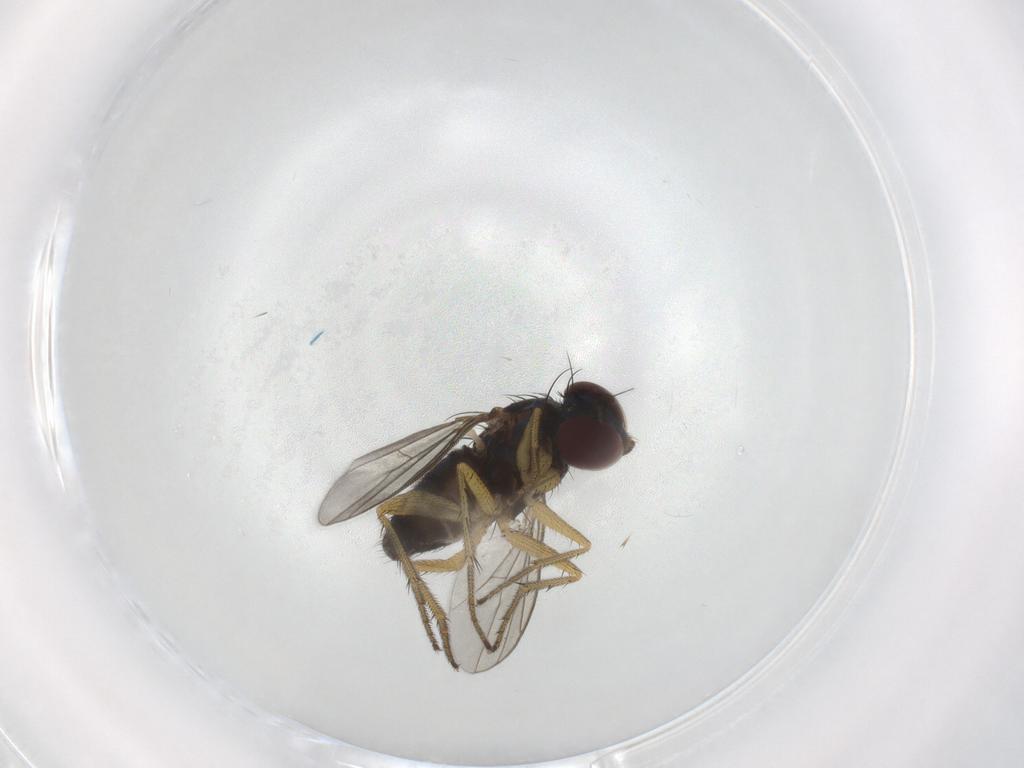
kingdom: Animalia
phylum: Arthropoda
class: Insecta
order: Diptera
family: Dolichopodidae
